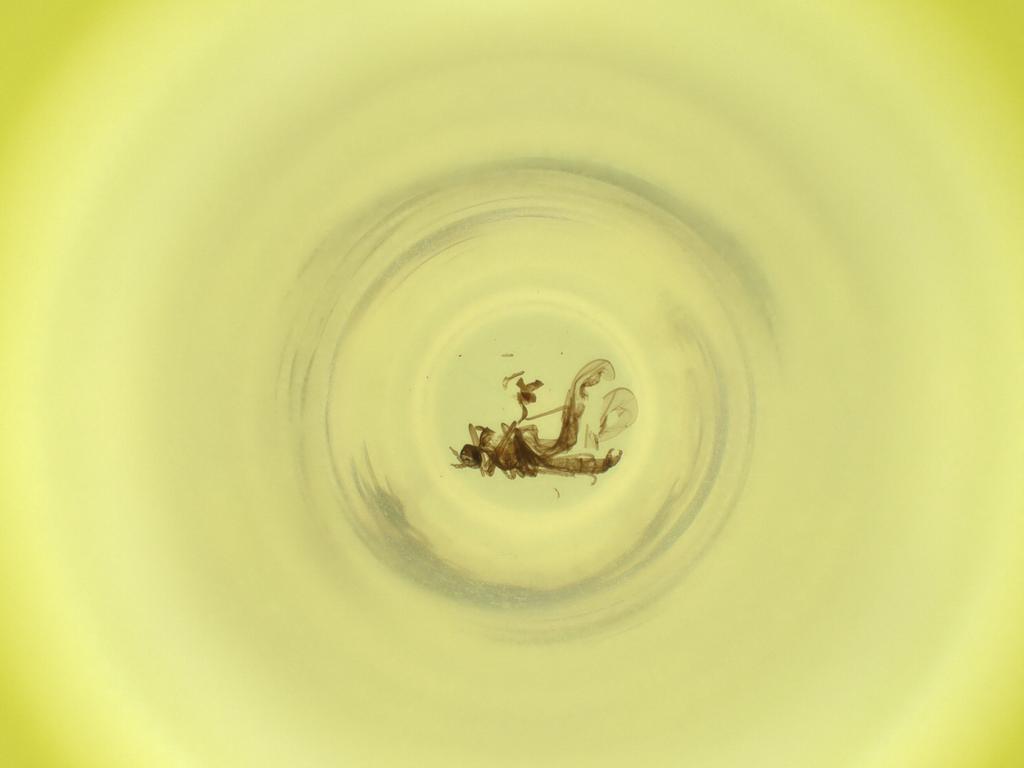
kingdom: Animalia
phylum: Arthropoda
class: Insecta
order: Diptera
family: Cecidomyiidae
